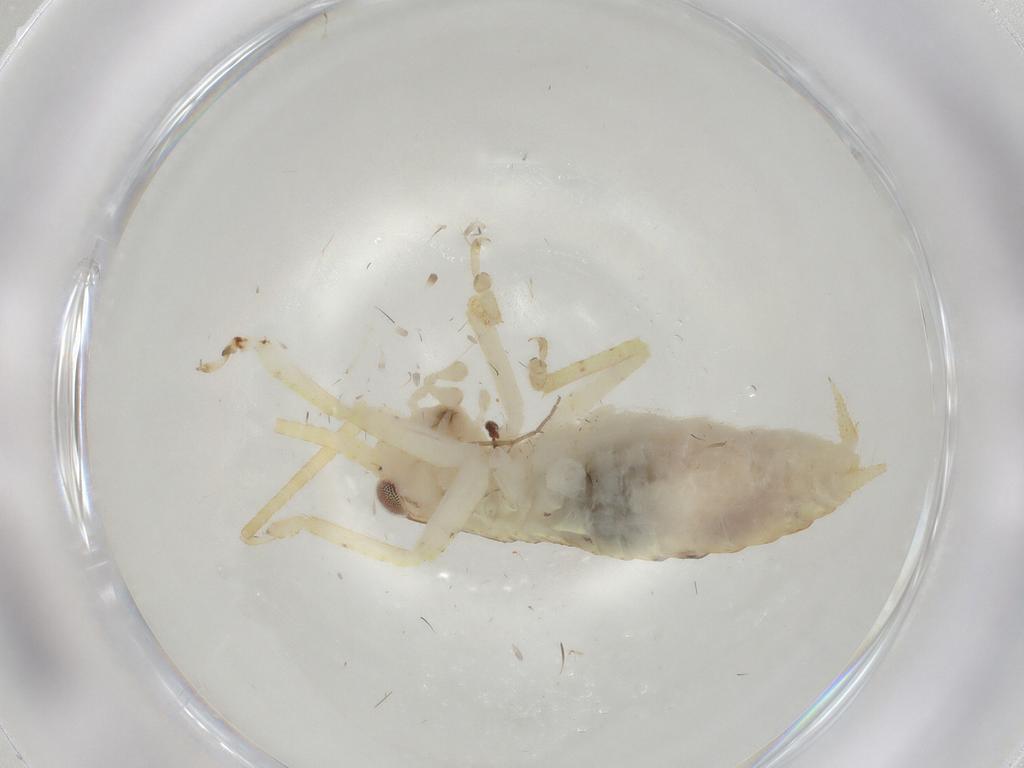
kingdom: Animalia
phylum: Arthropoda
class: Insecta
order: Orthoptera
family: Gryllidae
